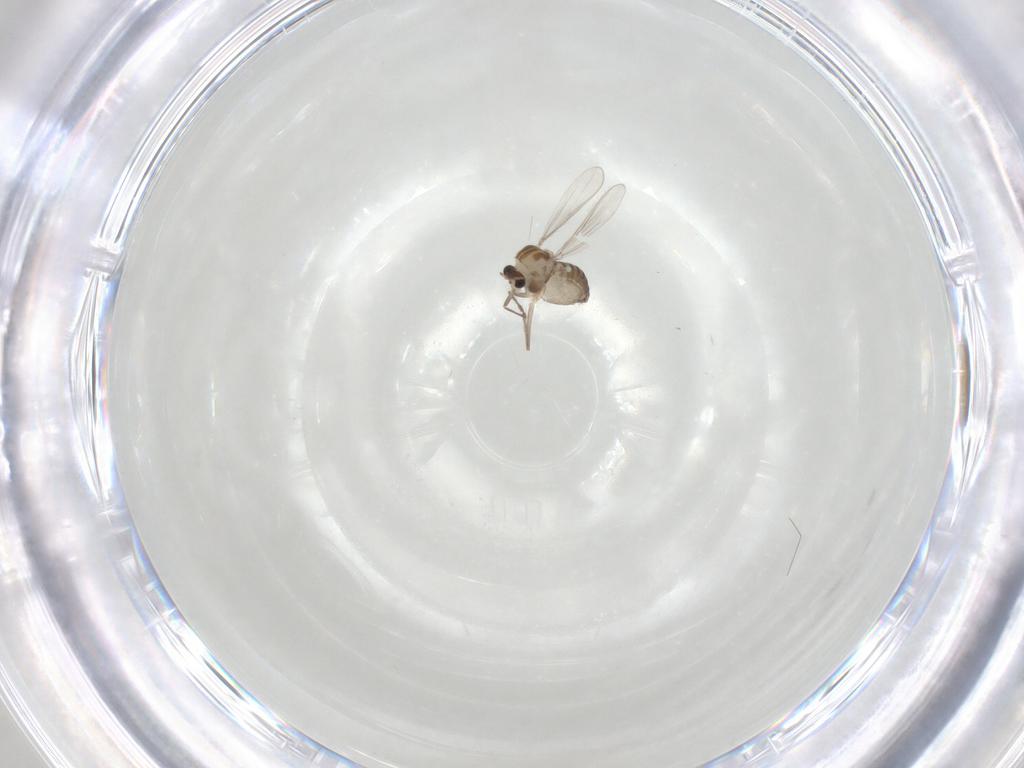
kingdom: Animalia
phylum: Arthropoda
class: Insecta
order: Diptera
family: Chironomidae
